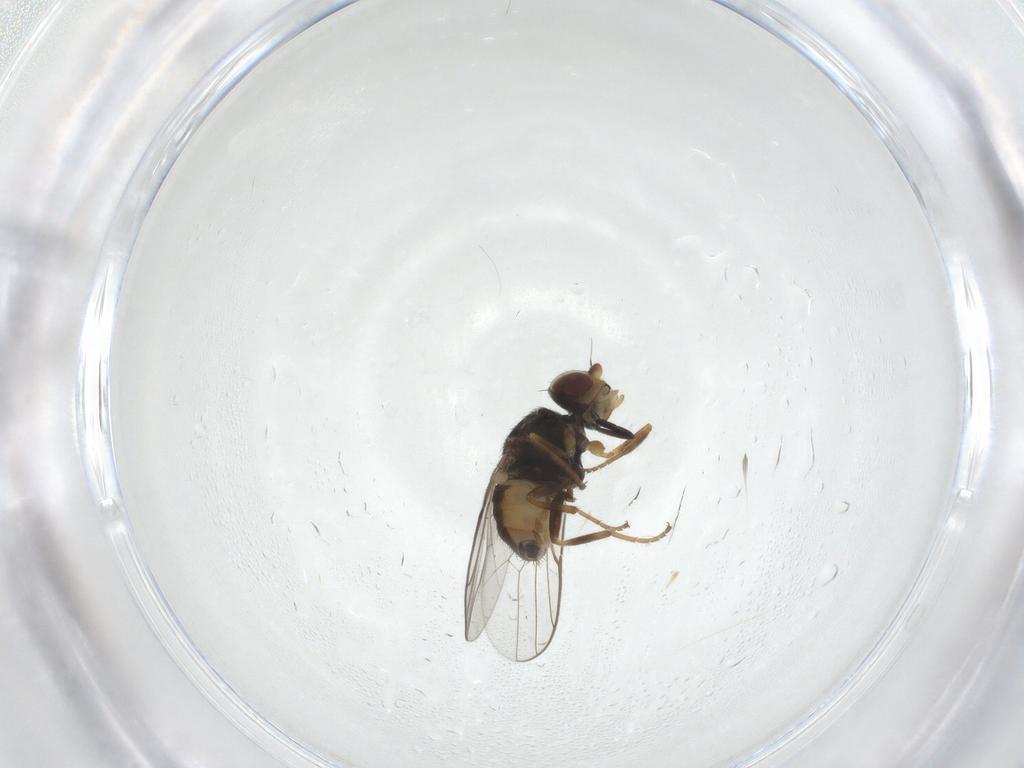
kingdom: Animalia
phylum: Arthropoda
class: Insecta
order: Diptera
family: Chloropidae
